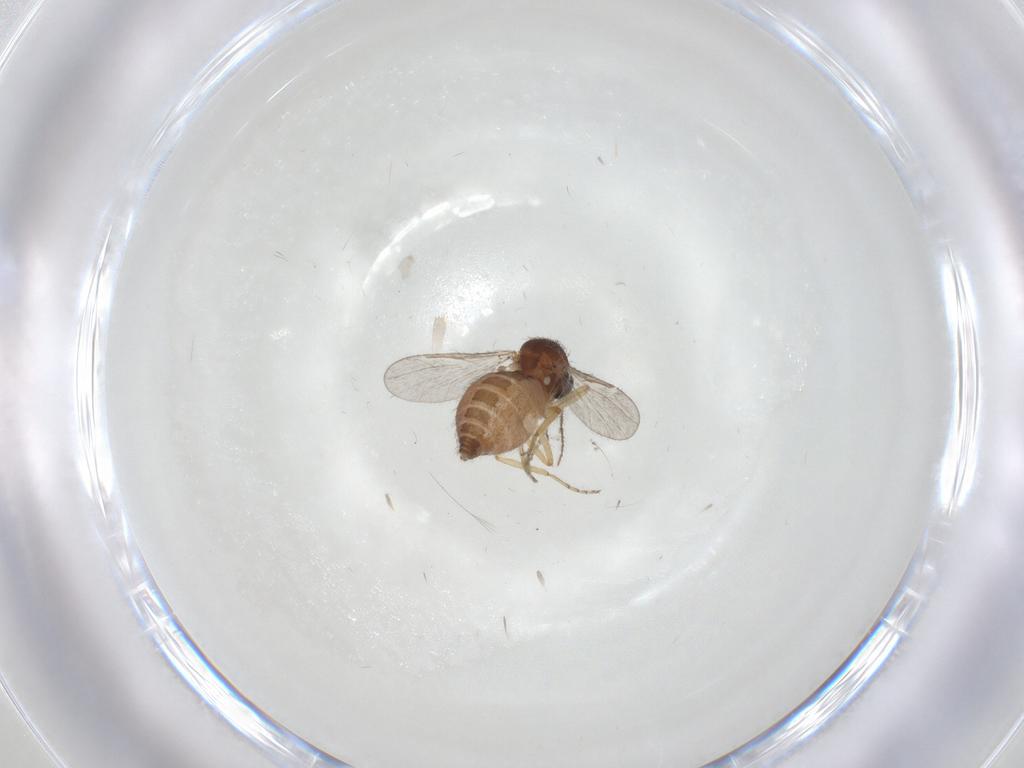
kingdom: Animalia
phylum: Arthropoda
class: Insecta
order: Diptera
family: Ceratopogonidae
